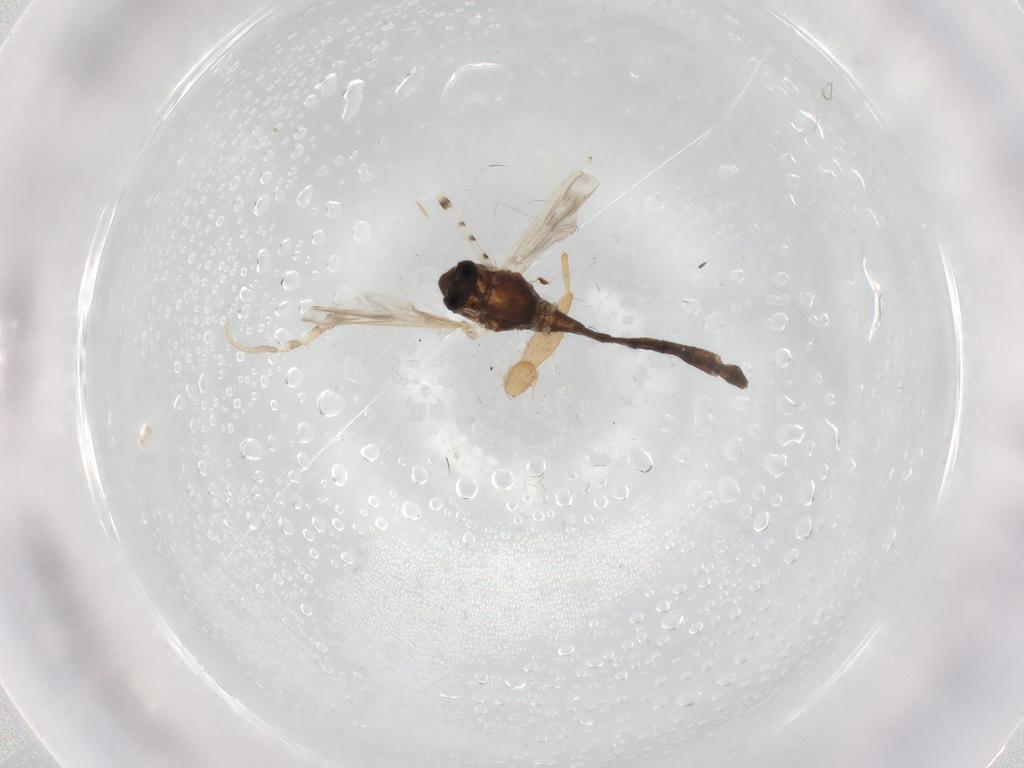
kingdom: Animalia
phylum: Arthropoda
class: Insecta
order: Diptera
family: Chironomidae
